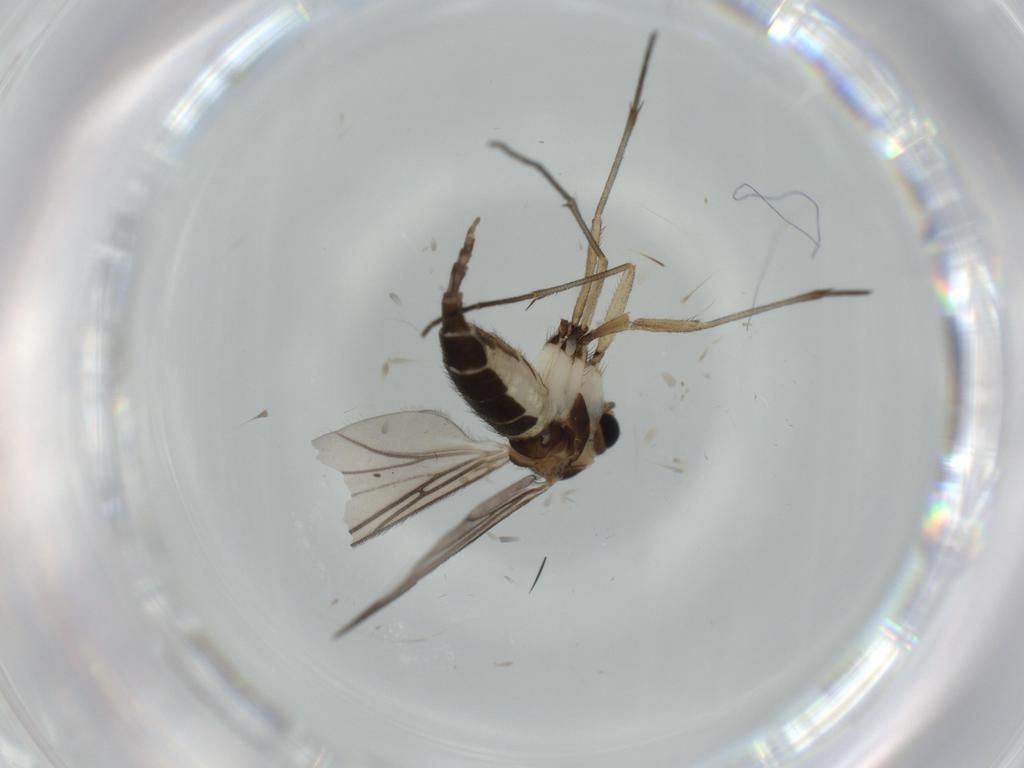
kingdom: Animalia
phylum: Arthropoda
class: Insecta
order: Diptera
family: Sciaridae
